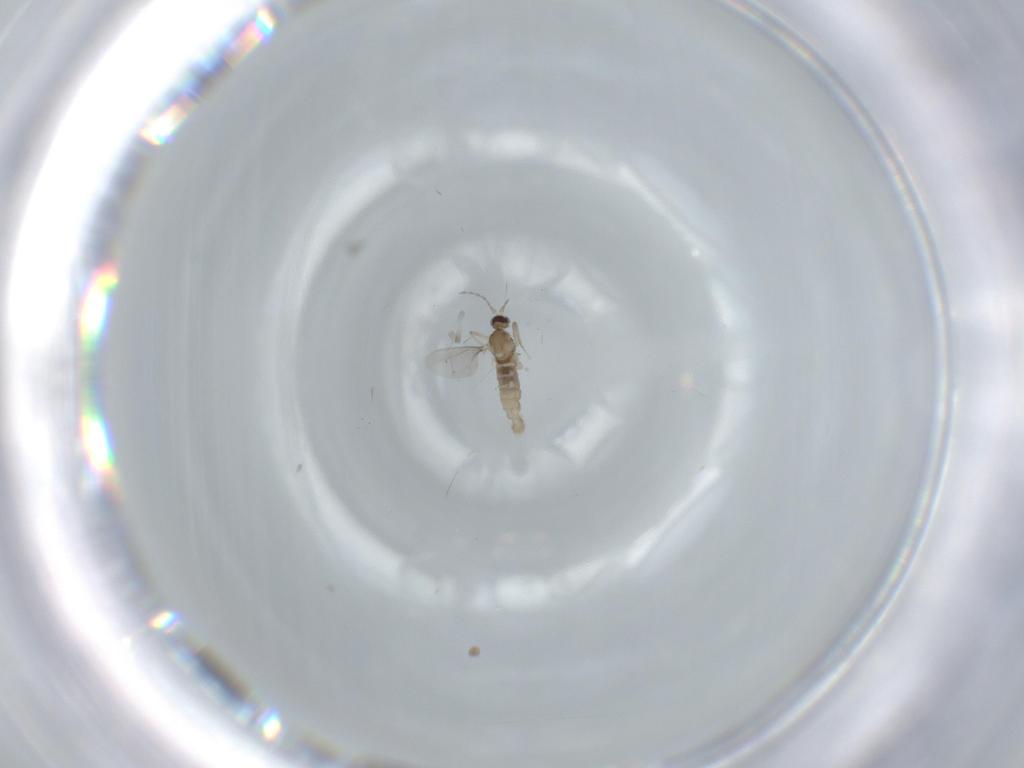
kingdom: Animalia
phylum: Arthropoda
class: Insecta
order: Diptera
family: Cecidomyiidae
